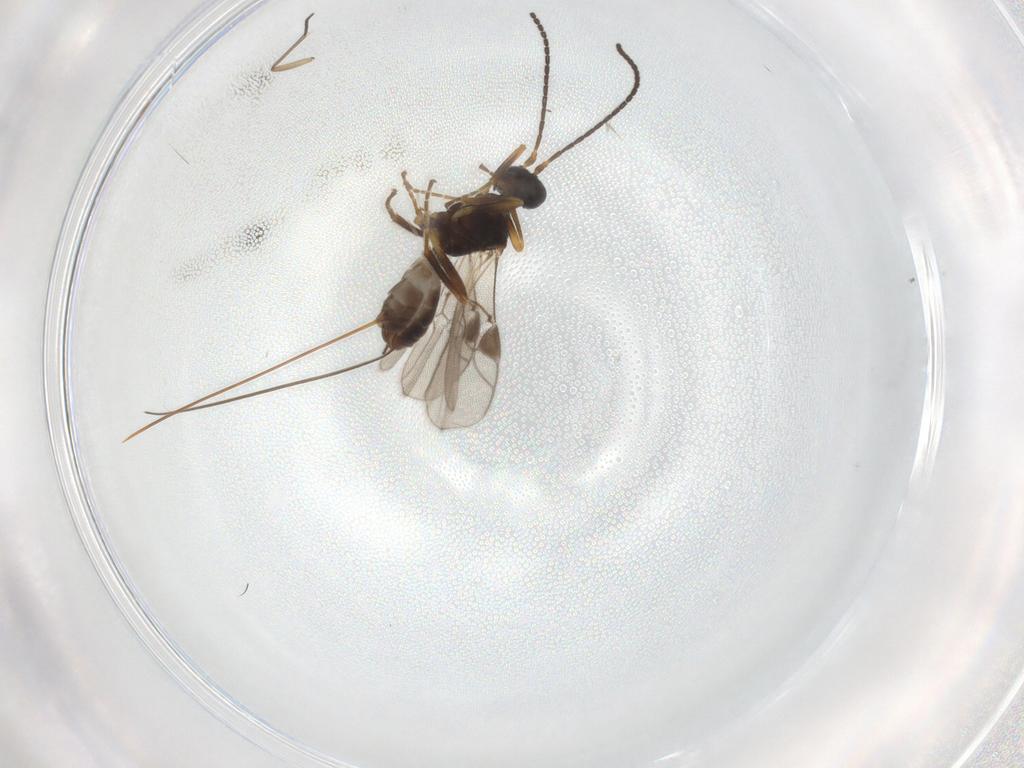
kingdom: Animalia
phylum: Arthropoda
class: Insecta
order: Hymenoptera
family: Braconidae
